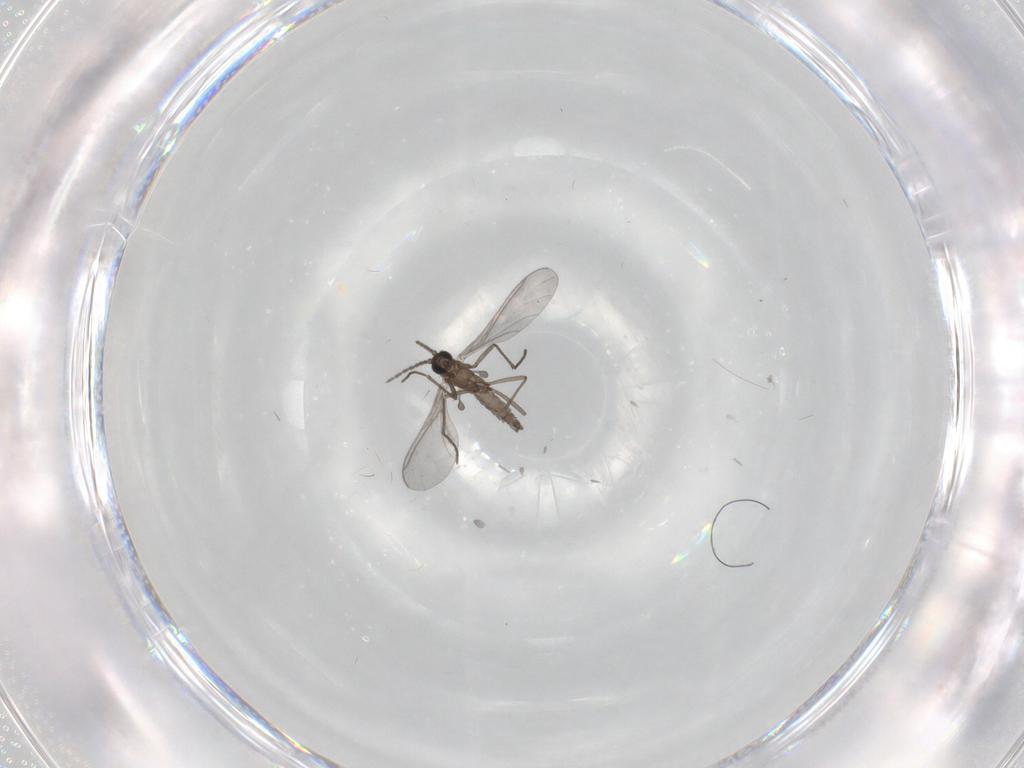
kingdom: Animalia
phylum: Arthropoda
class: Insecta
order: Diptera
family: Sciaridae
